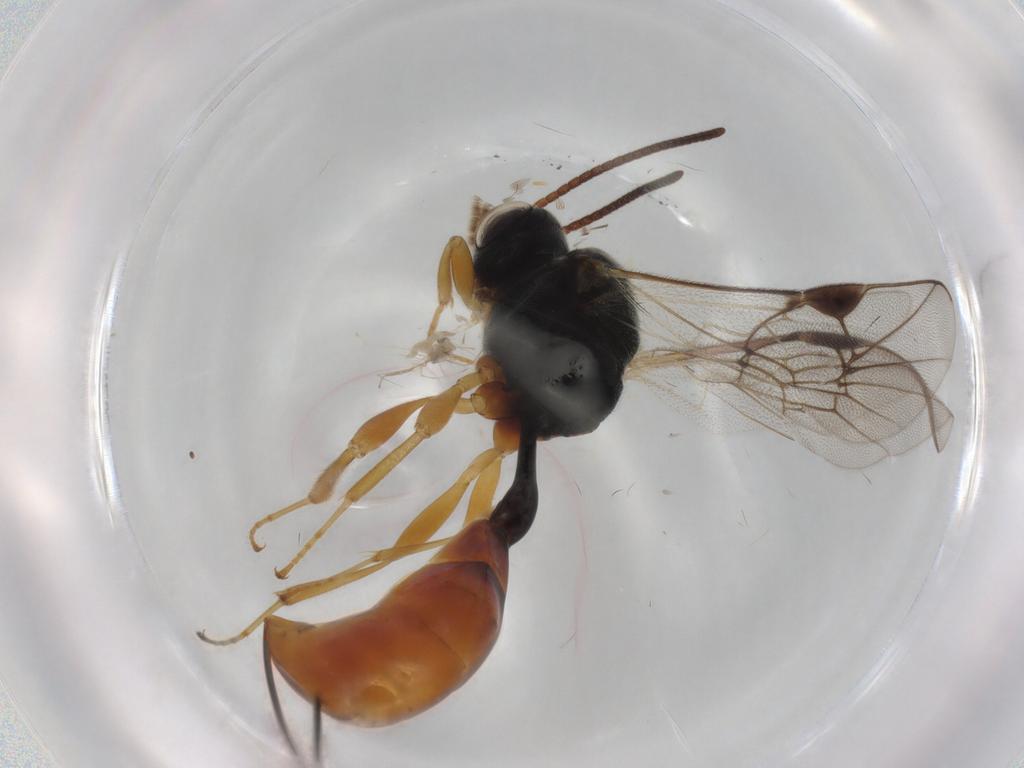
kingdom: Animalia
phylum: Arthropoda
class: Insecta
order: Hymenoptera
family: Ichneumonidae
